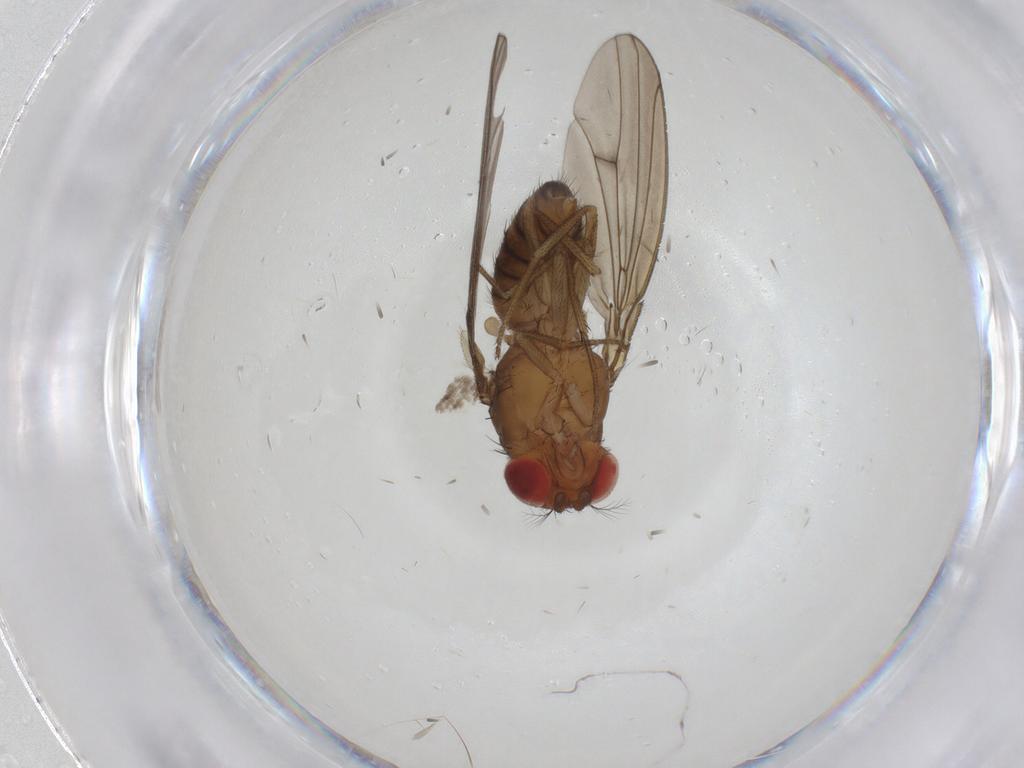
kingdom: Animalia
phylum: Arthropoda
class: Insecta
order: Diptera
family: Drosophilidae
